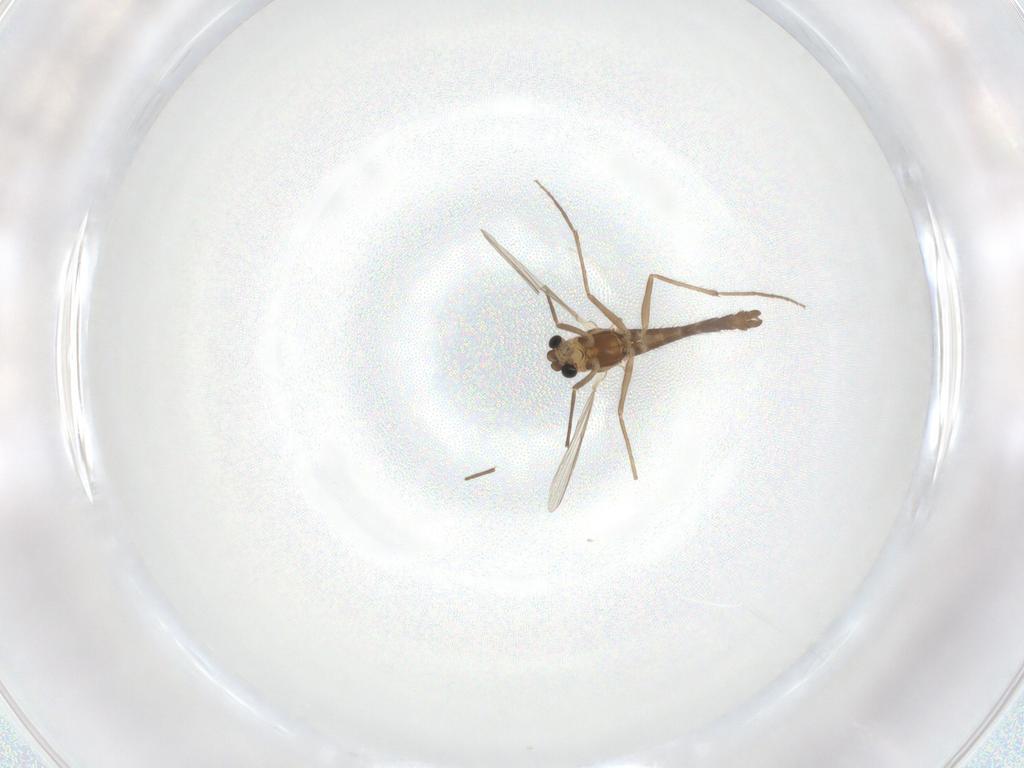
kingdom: Animalia
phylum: Arthropoda
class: Insecta
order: Diptera
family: Chironomidae
